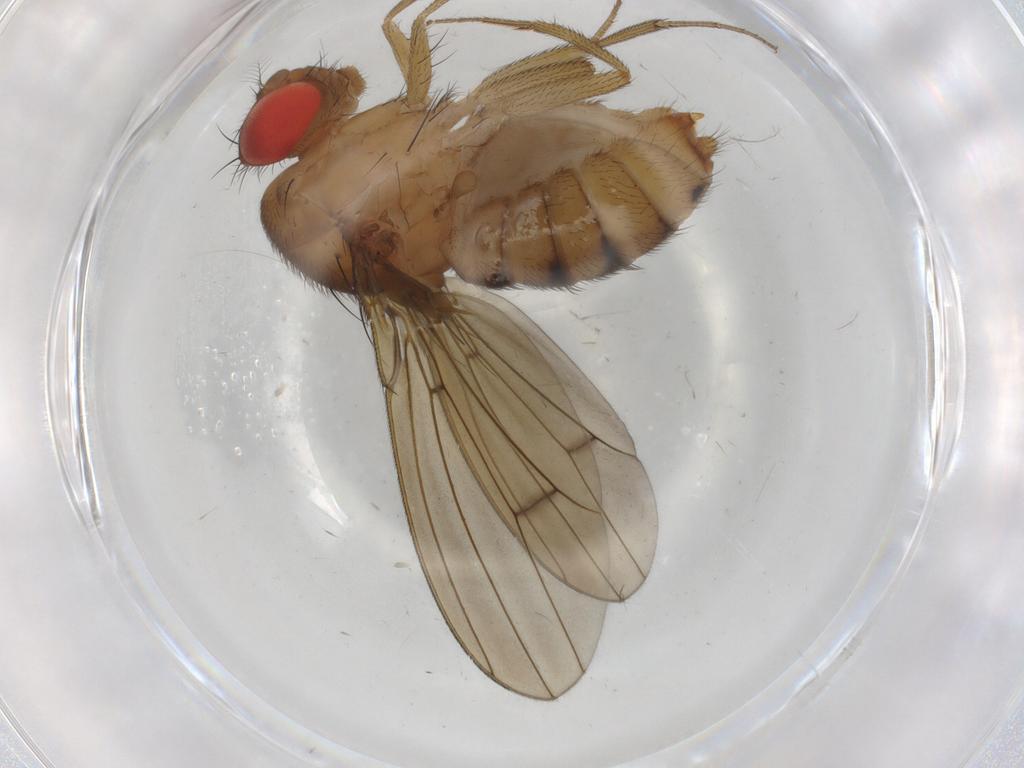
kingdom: Animalia
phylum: Arthropoda
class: Insecta
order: Diptera
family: Drosophilidae
